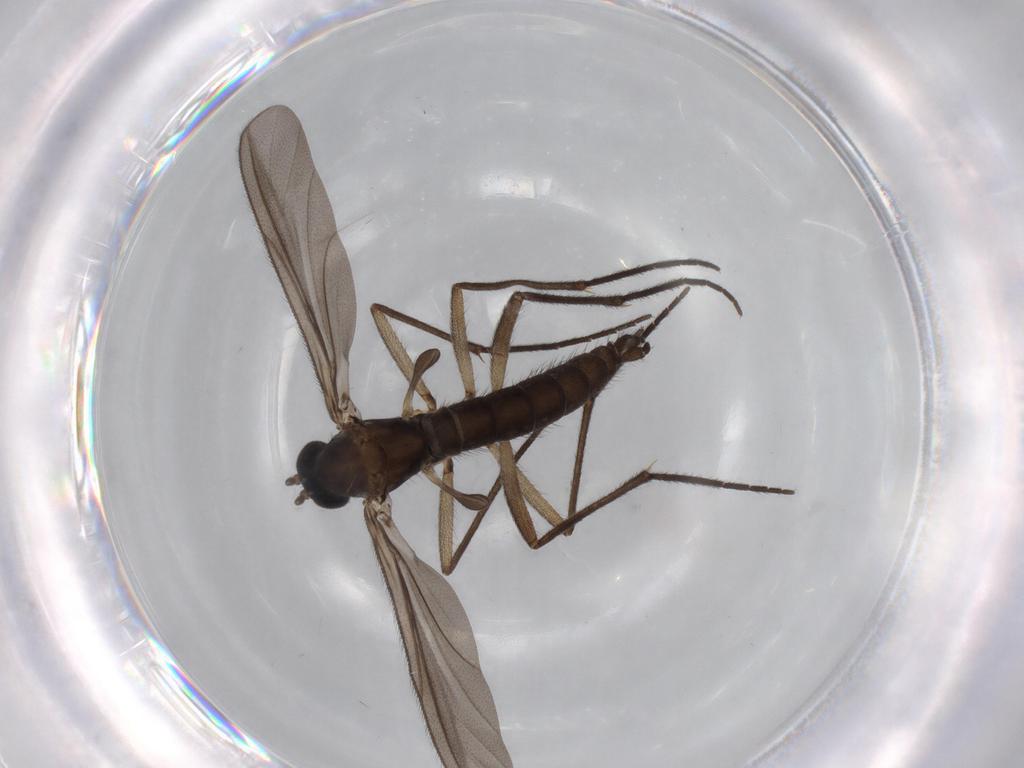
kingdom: Animalia
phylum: Arthropoda
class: Insecta
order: Diptera
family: Sciaridae
